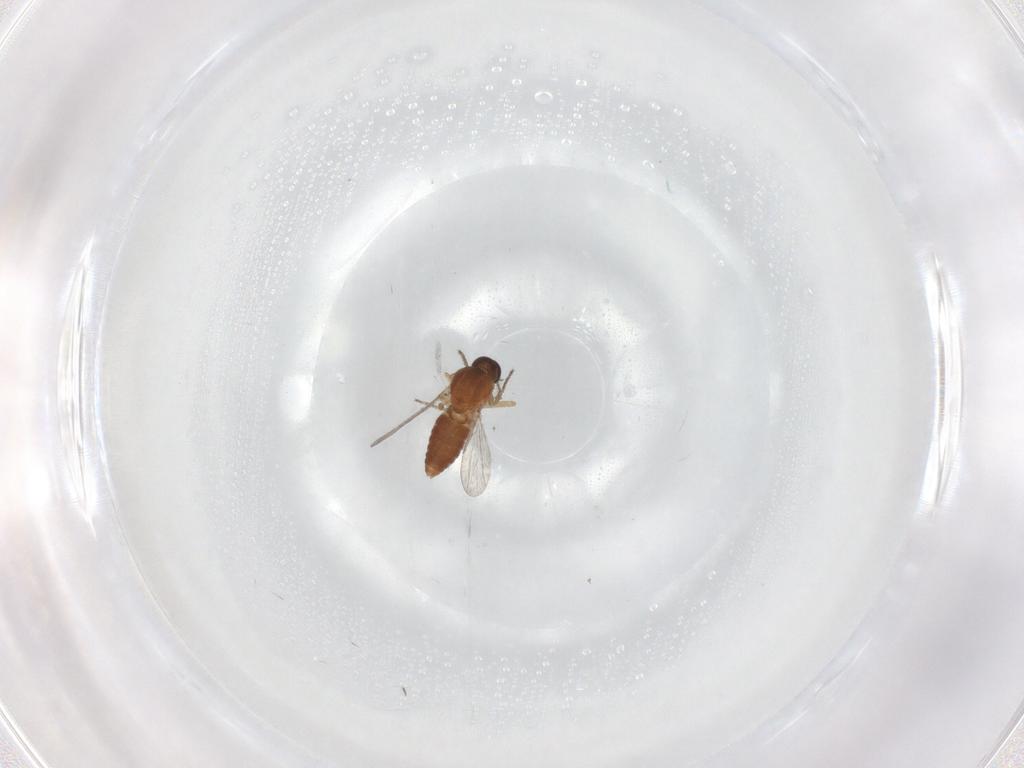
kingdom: Animalia
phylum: Arthropoda
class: Insecta
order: Diptera
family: Ceratopogonidae
